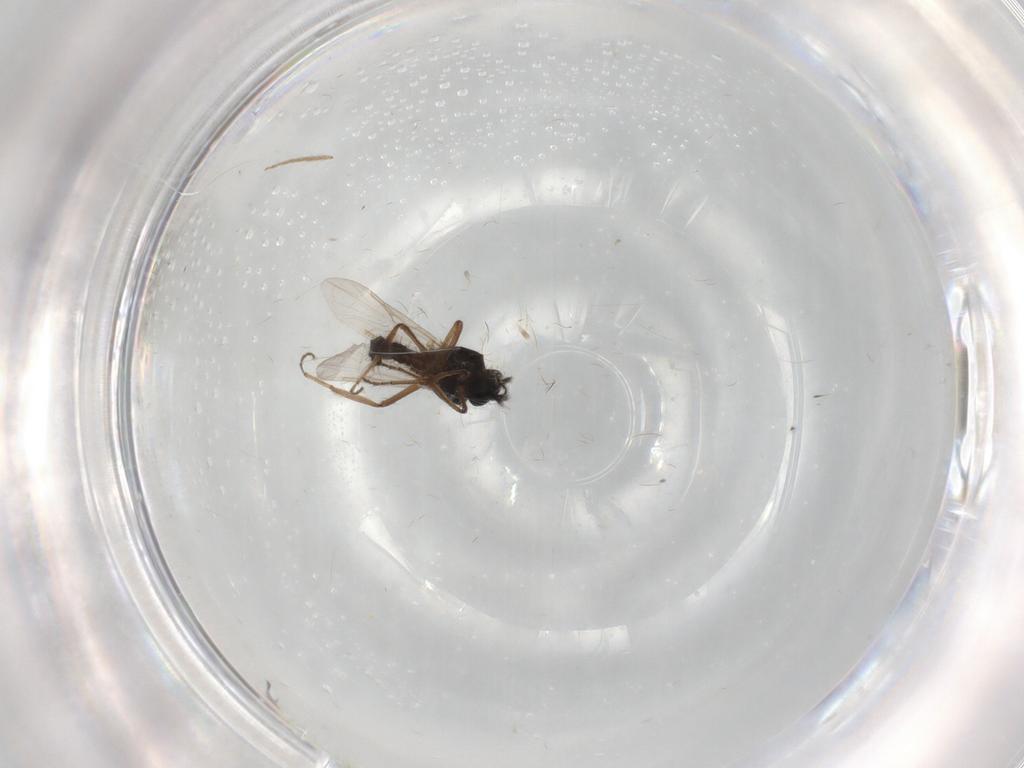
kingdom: Animalia
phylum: Arthropoda
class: Insecta
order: Diptera
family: Ceratopogonidae
